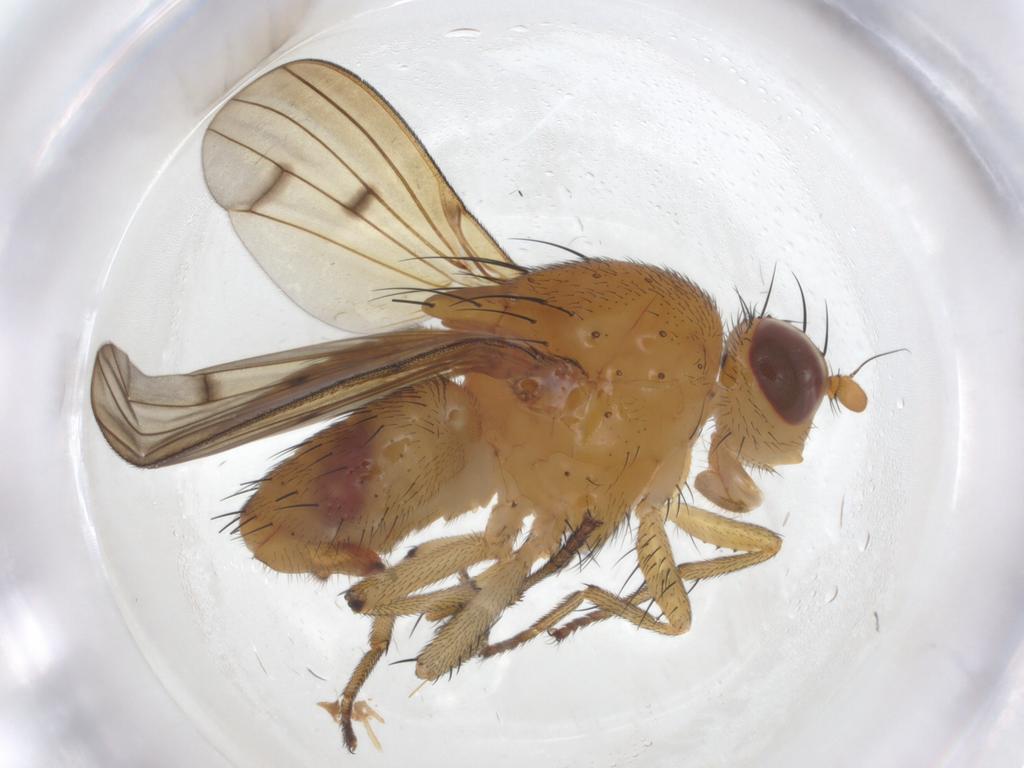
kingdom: Animalia
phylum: Arthropoda
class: Insecta
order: Diptera
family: Lauxaniidae
